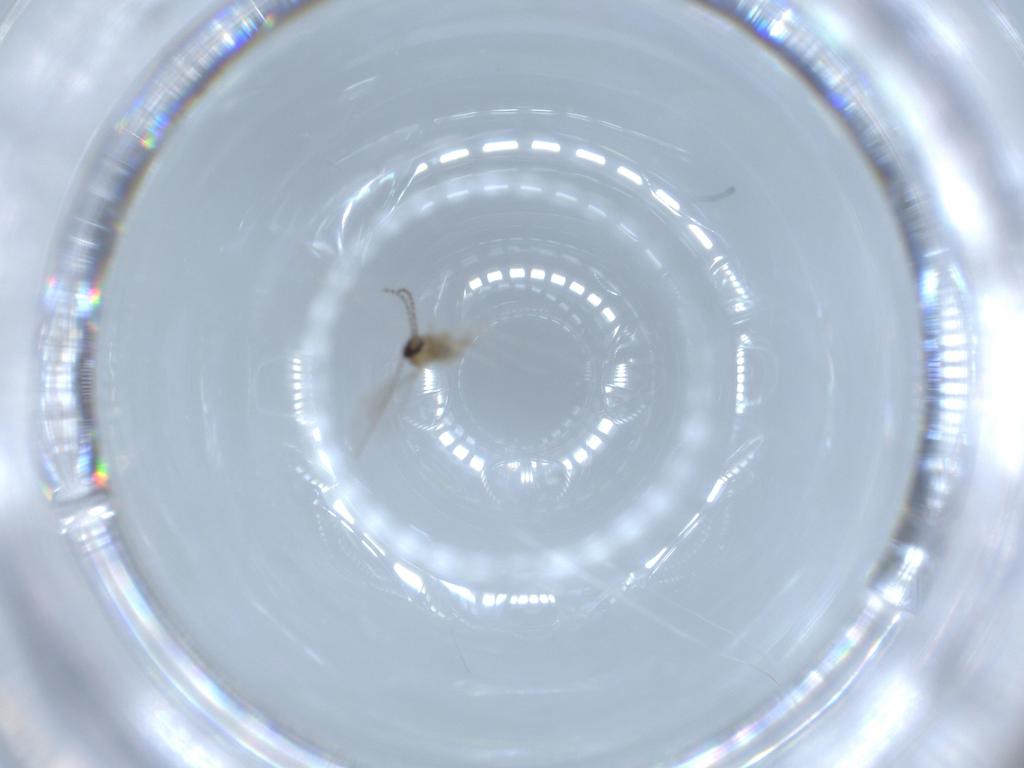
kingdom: Animalia
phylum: Arthropoda
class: Insecta
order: Diptera
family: Cecidomyiidae
